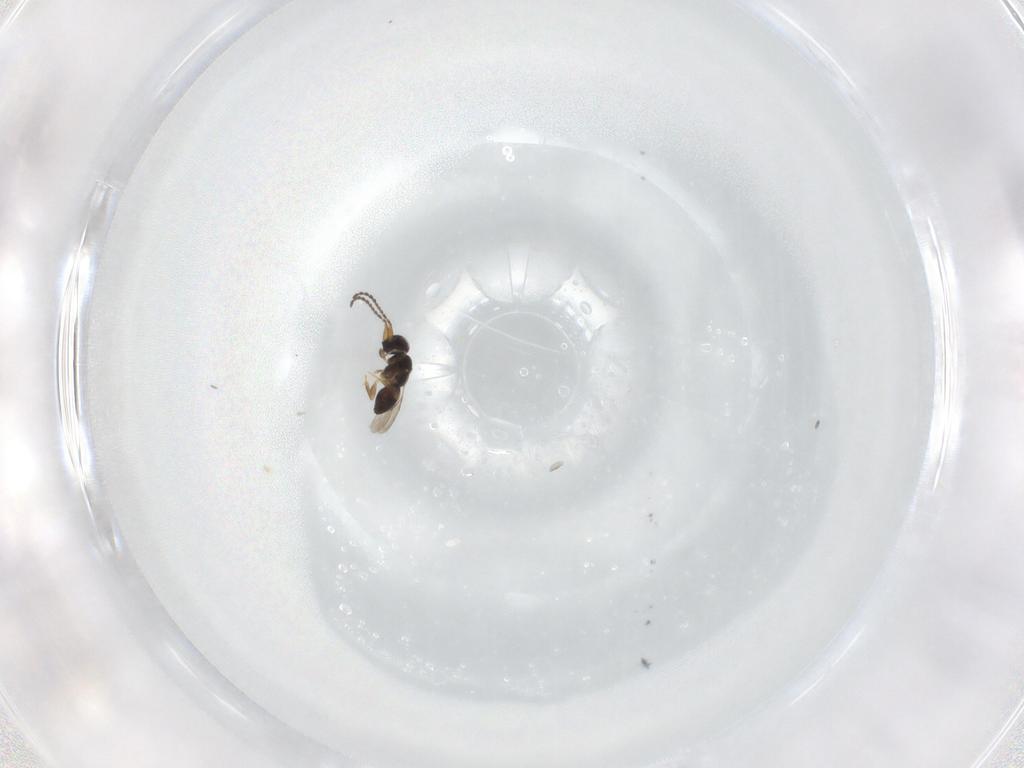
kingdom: Animalia
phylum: Arthropoda
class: Insecta
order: Hymenoptera
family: Ceraphronidae
